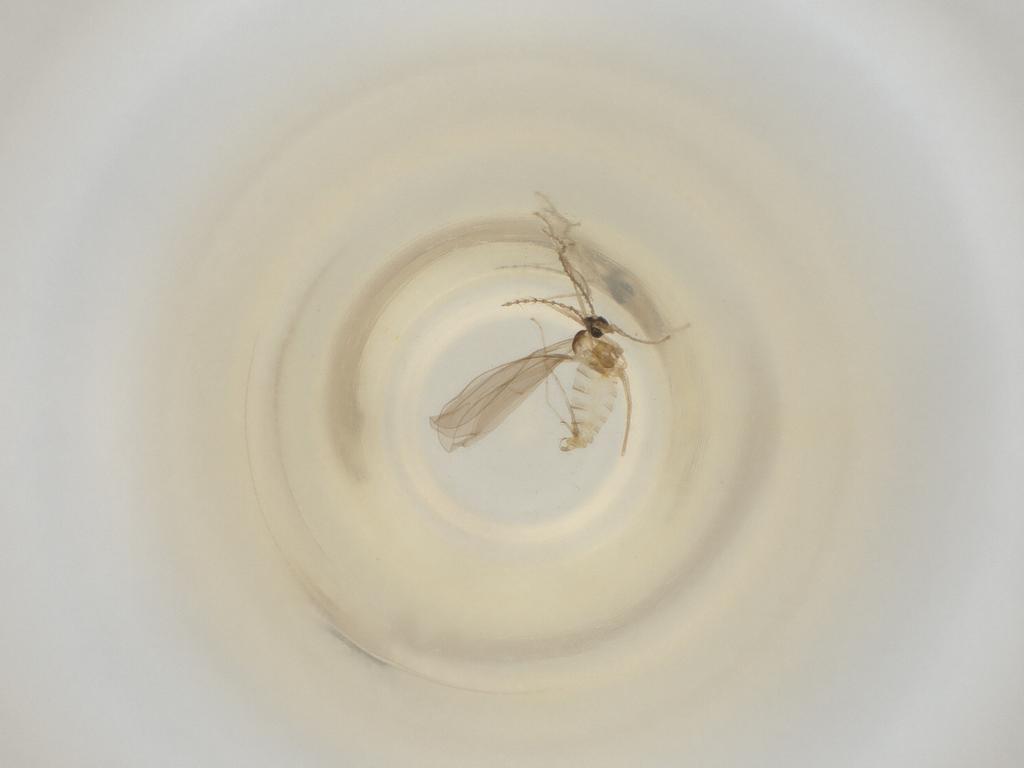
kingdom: Animalia
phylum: Arthropoda
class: Insecta
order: Diptera
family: Cecidomyiidae
